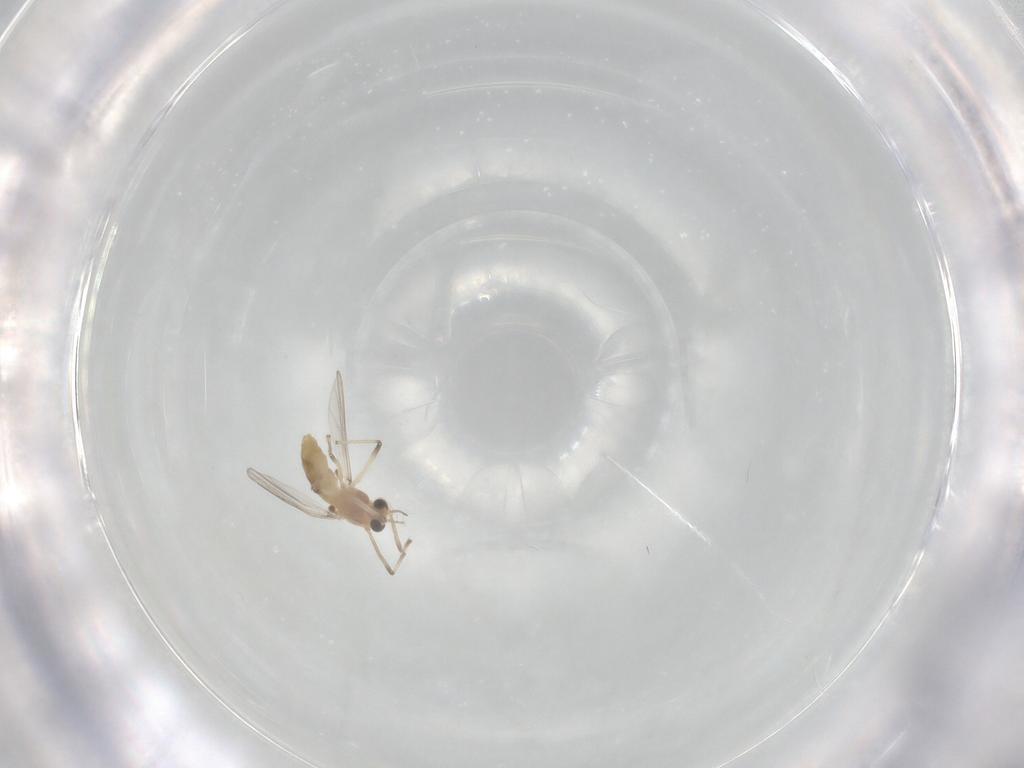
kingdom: Animalia
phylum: Arthropoda
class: Insecta
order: Diptera
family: Chironomidae
